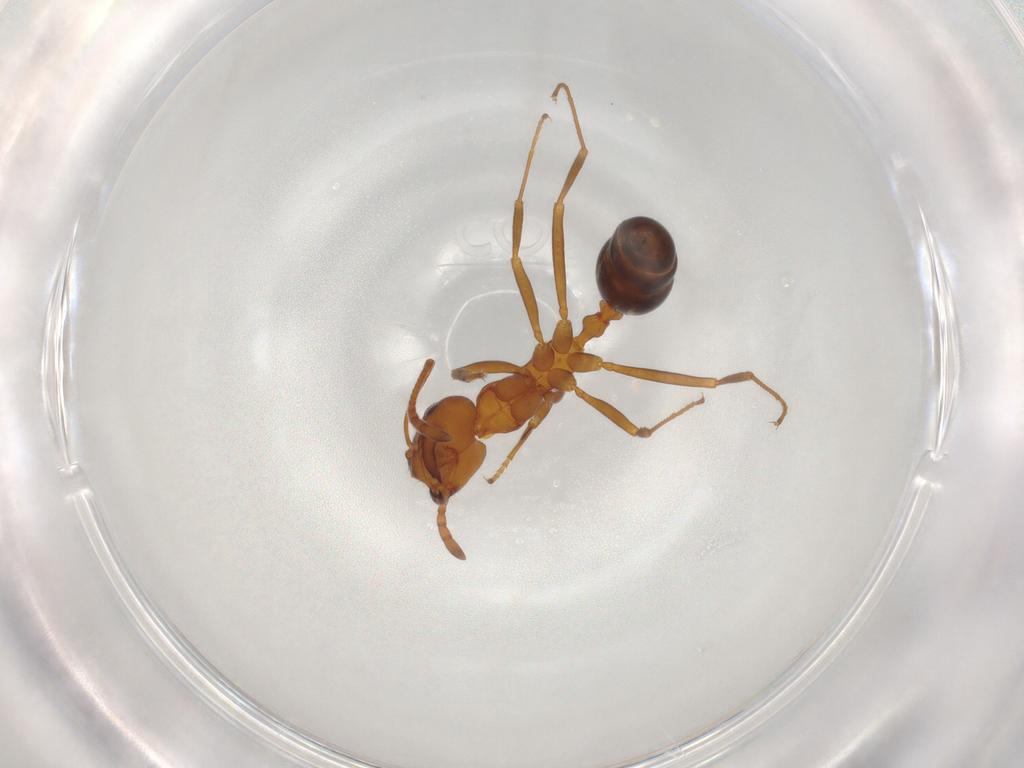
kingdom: Animalia
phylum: Arthropoda
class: Insecta
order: Hymenoptera
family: Formicidae
